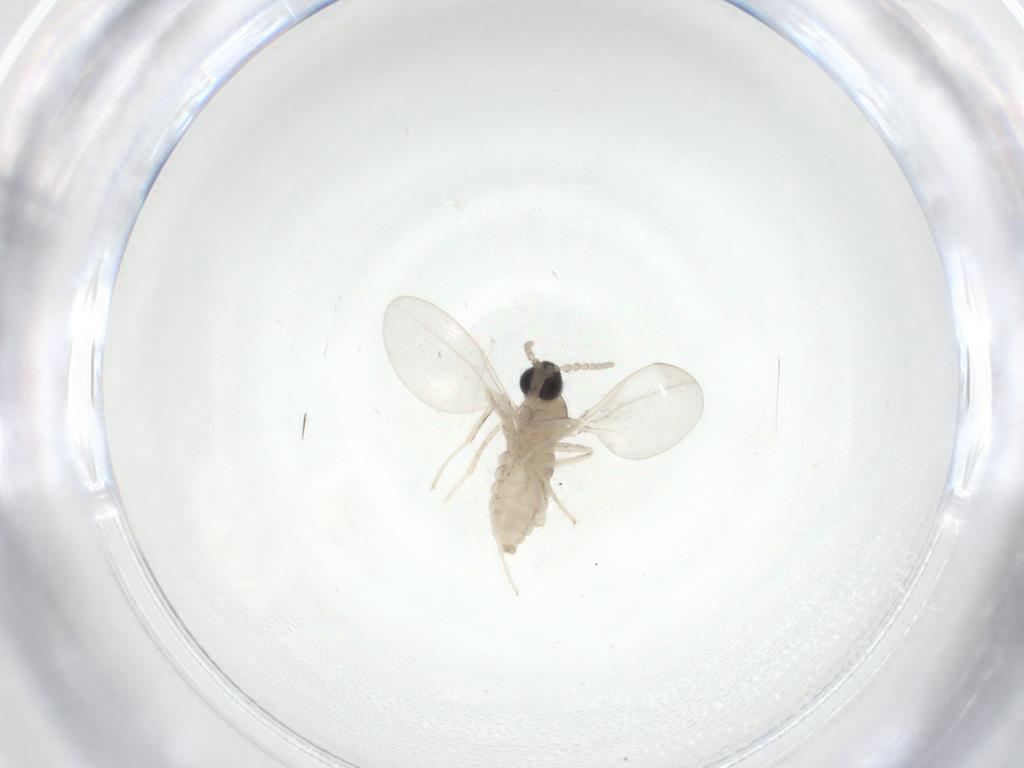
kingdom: Animalia
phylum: Arthropoda
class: Insecta
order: Diptera
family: Cecidomyiidae
